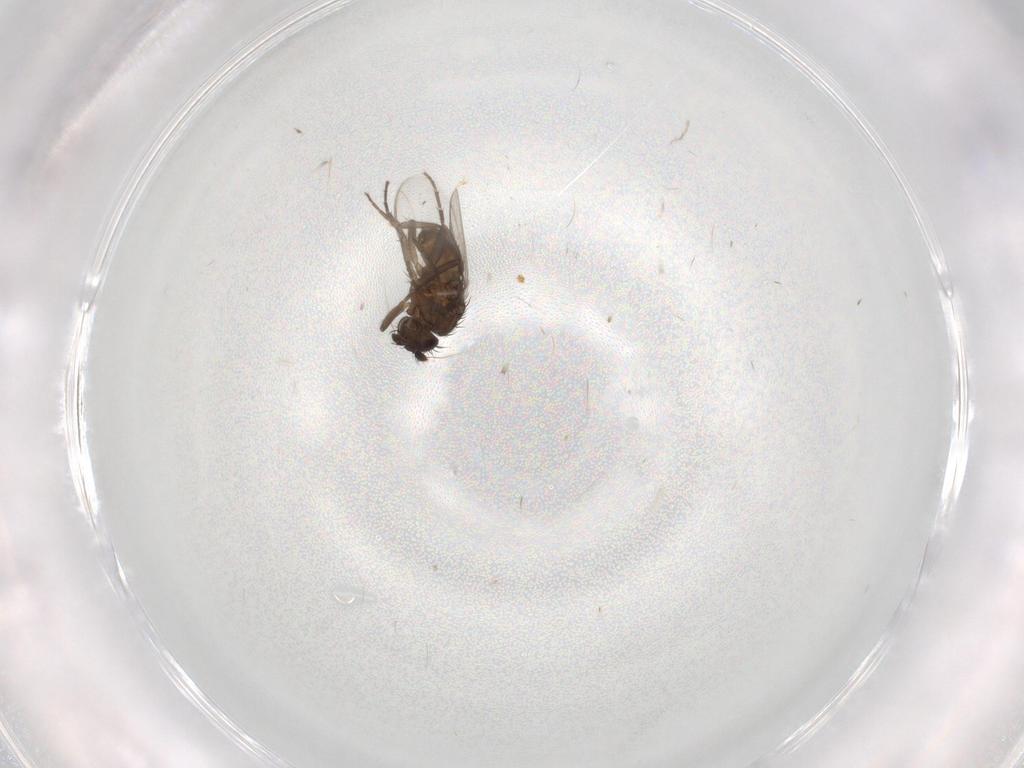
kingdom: Animalia
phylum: Arthropoda
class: Insecta
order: Diptera
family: Sphaeroceridae
